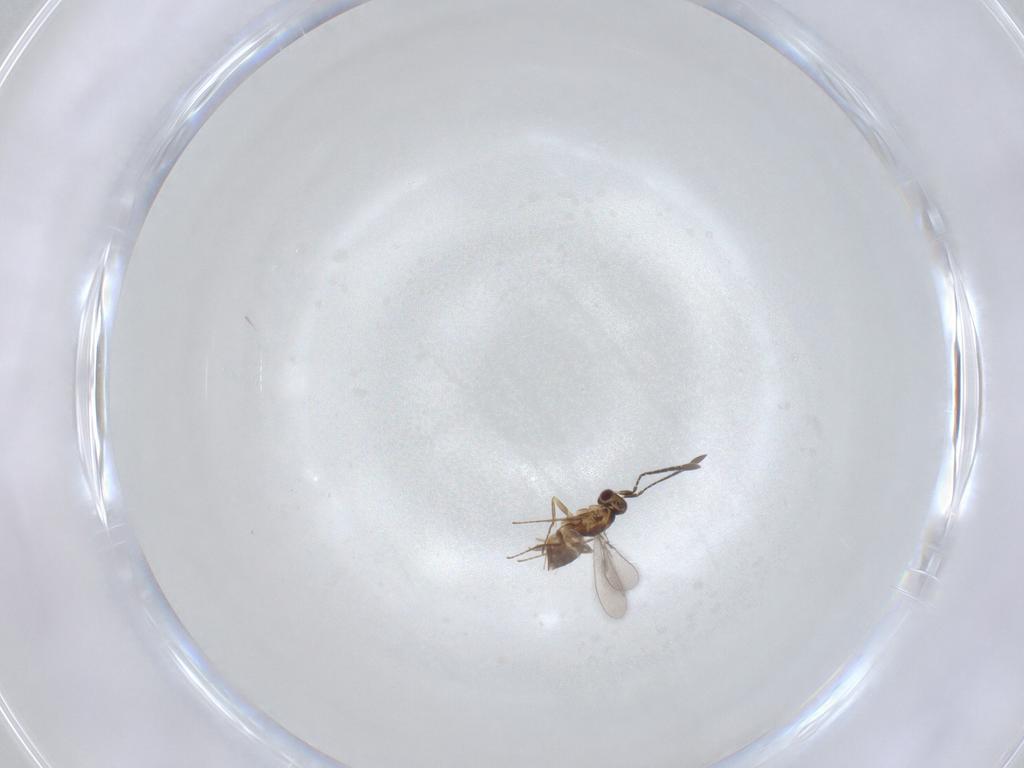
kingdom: Animalia
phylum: Arthropoda
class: Insecta
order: Hymenoptera
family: Mymaridae
